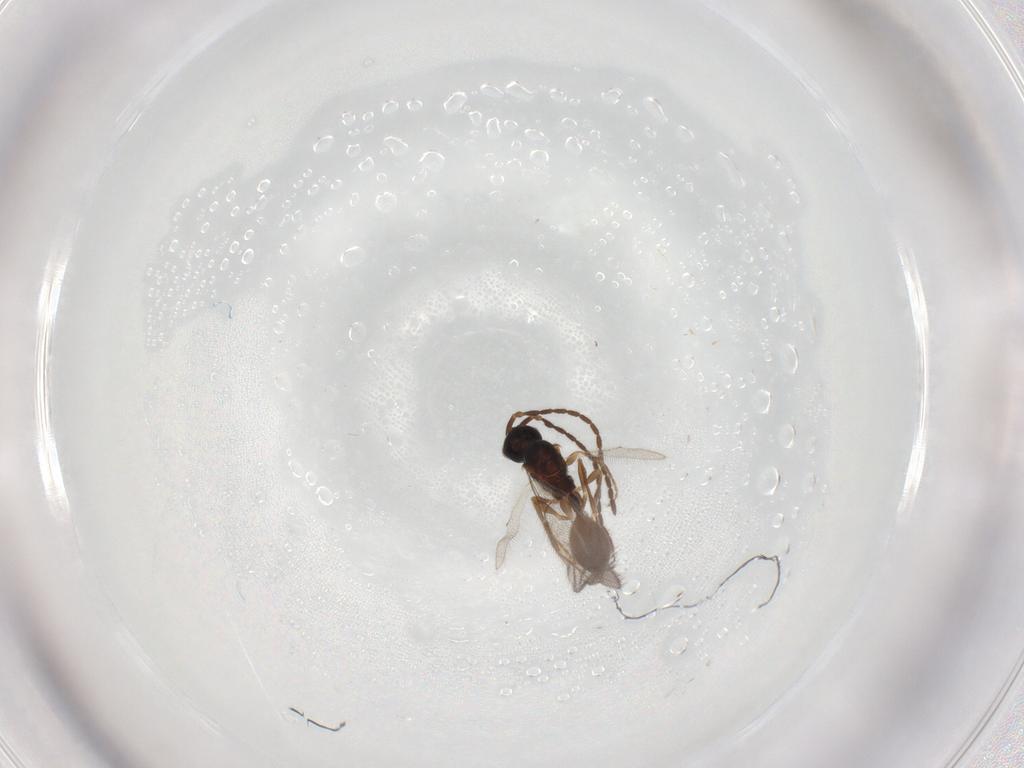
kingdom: Animalia
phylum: Arthropoda
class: Insecta
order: Hymenoptera
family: Diapriidae
